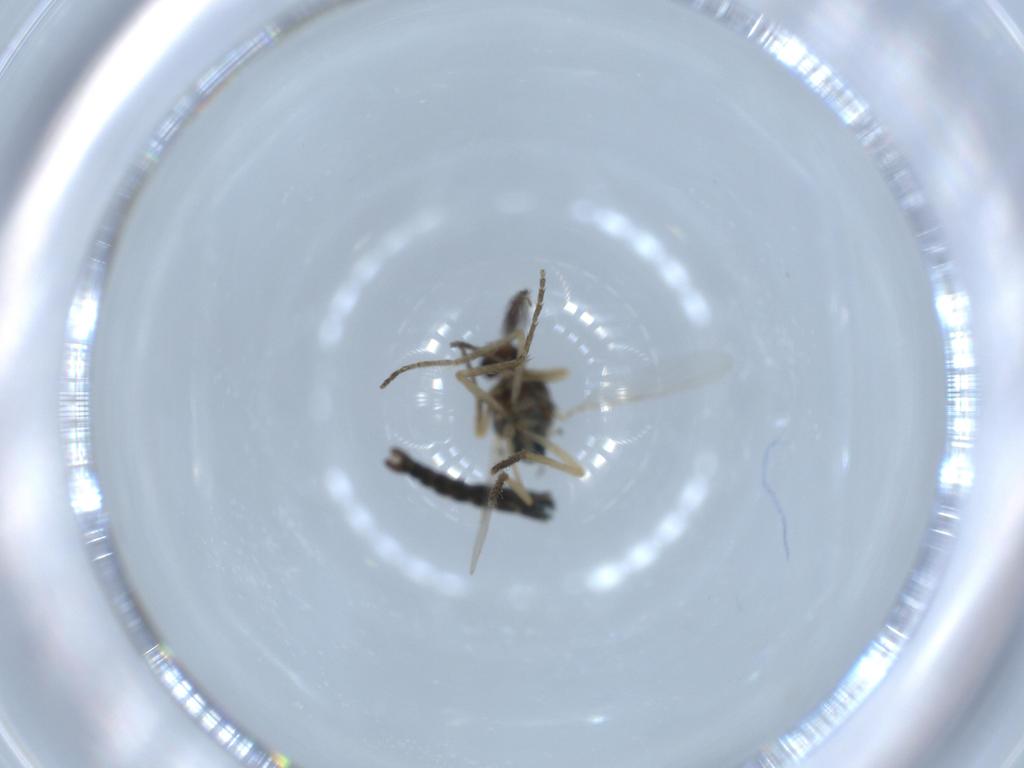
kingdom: Animalia
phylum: Arthropoda
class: Insecta
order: Diptera
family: Ceratopogonidae
